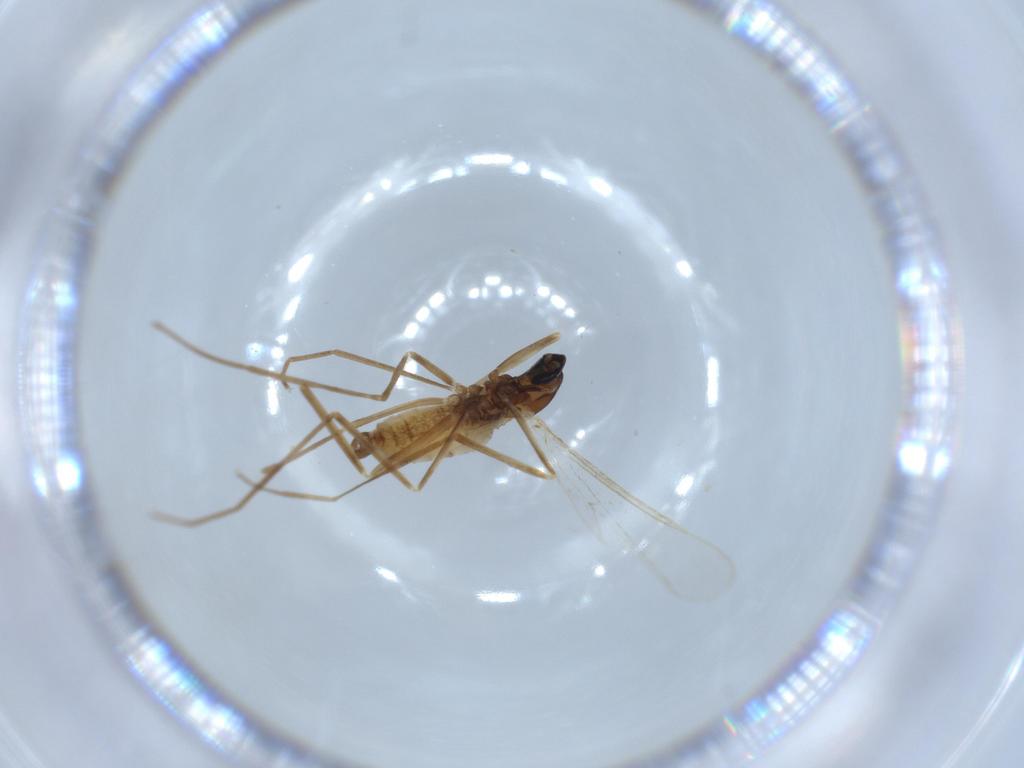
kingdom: Animalia
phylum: Arthropoda
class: Insecta
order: Diptera
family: Cecidomyiidae
